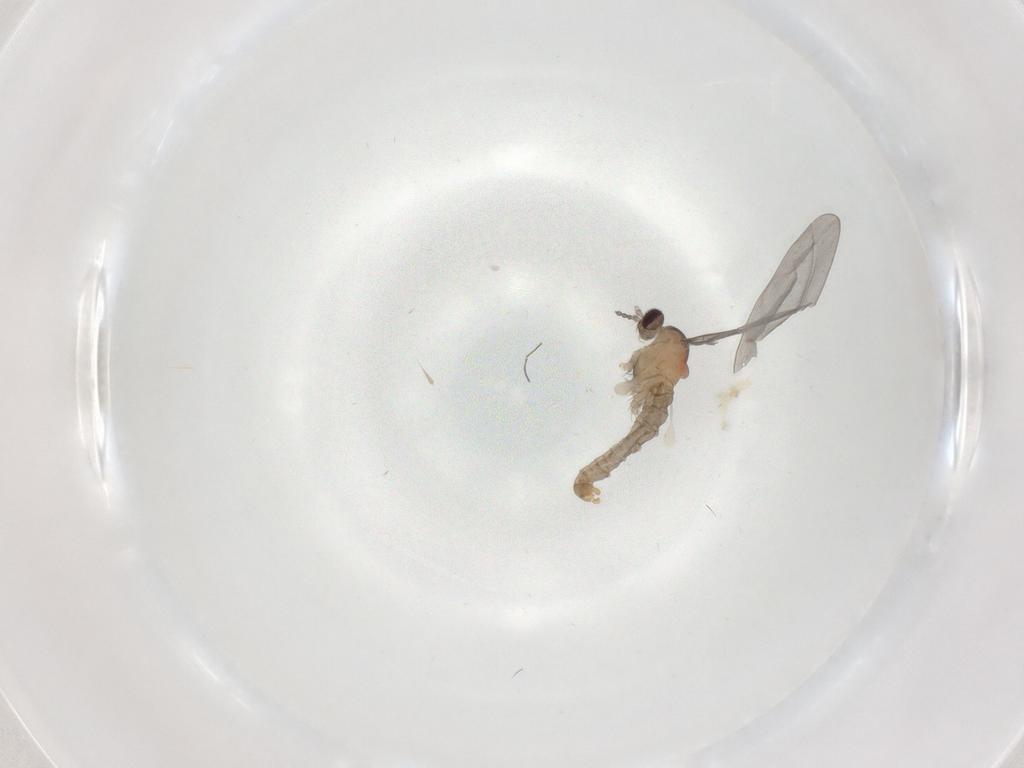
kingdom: Animalia
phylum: Arthropoda
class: Insecta
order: Diptera
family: Cecidomyiidae
